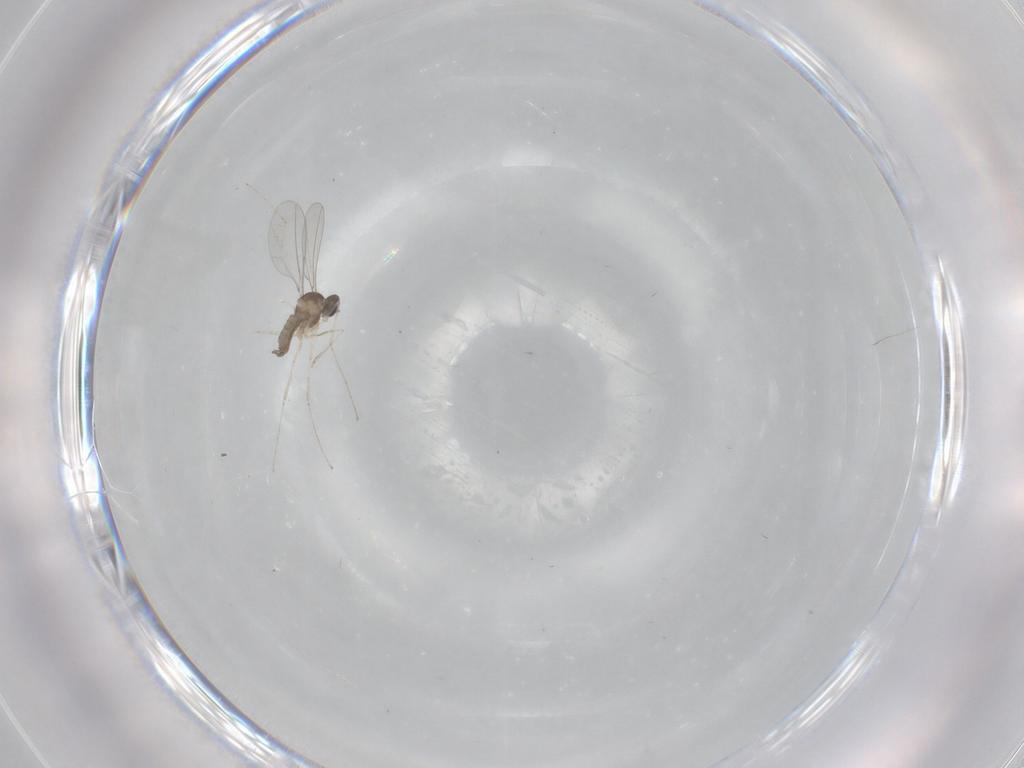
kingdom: Animalia
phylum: Arthropoda
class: Insecta
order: Diptera
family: Cecidomyiidae
